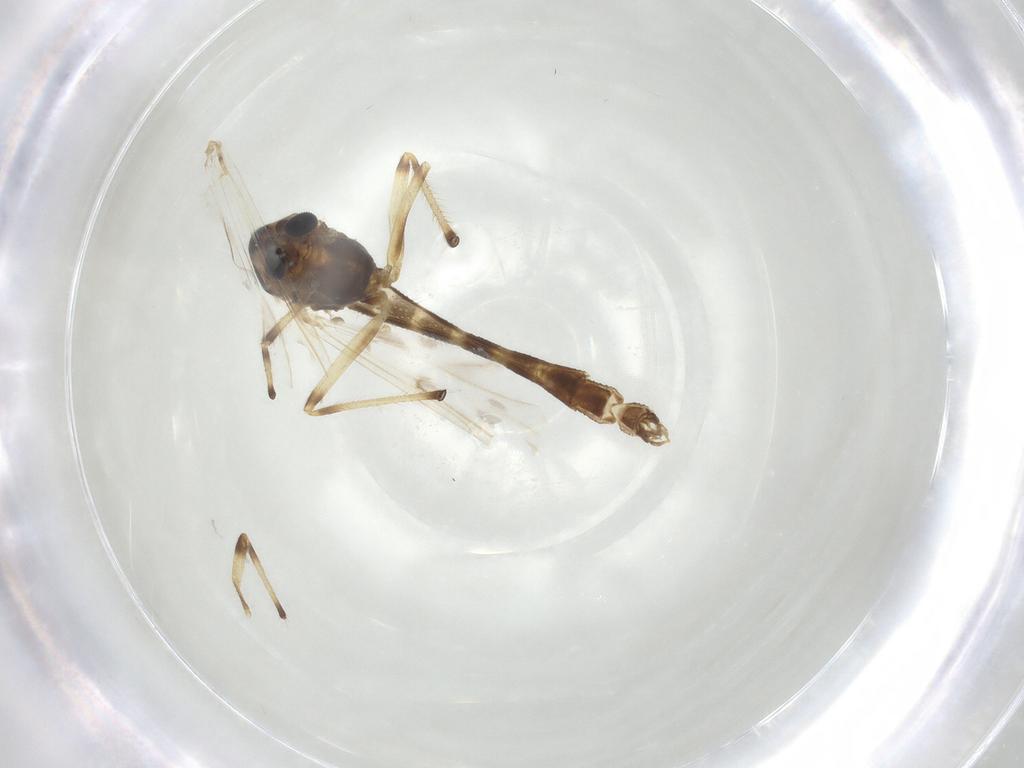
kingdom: Animalia
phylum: Arthropoda
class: Insecta
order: Diptera
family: Chironomidae
